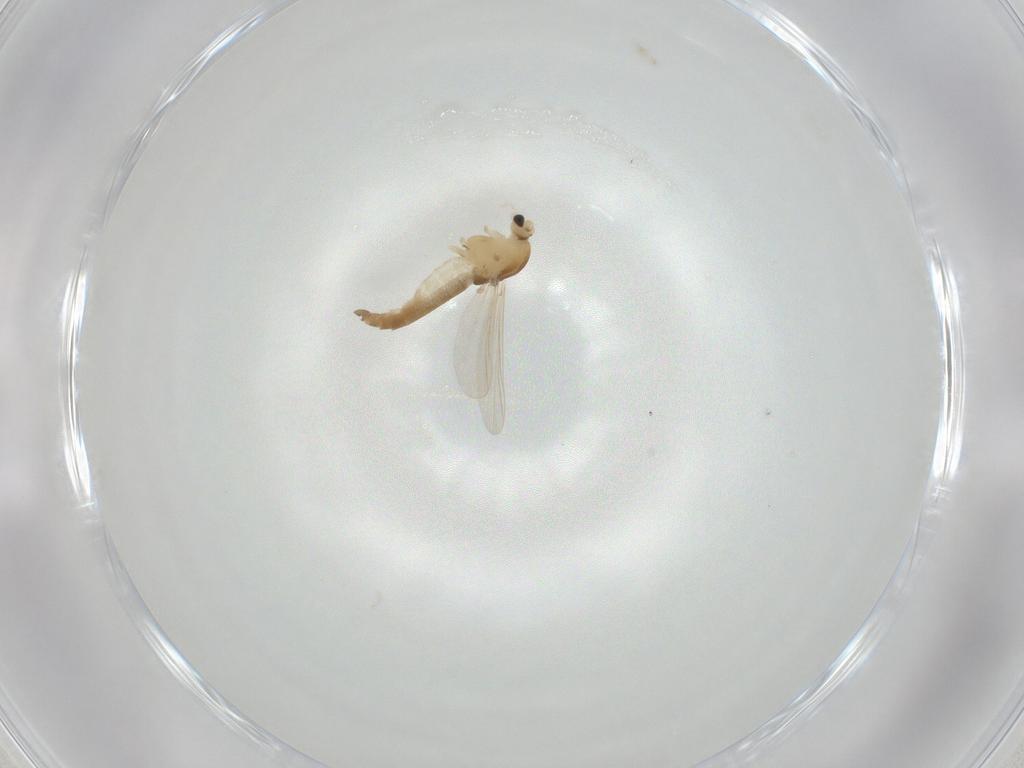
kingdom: Animalia
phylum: Arthropoda
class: Insecta
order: Diptera
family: Chironomidae
